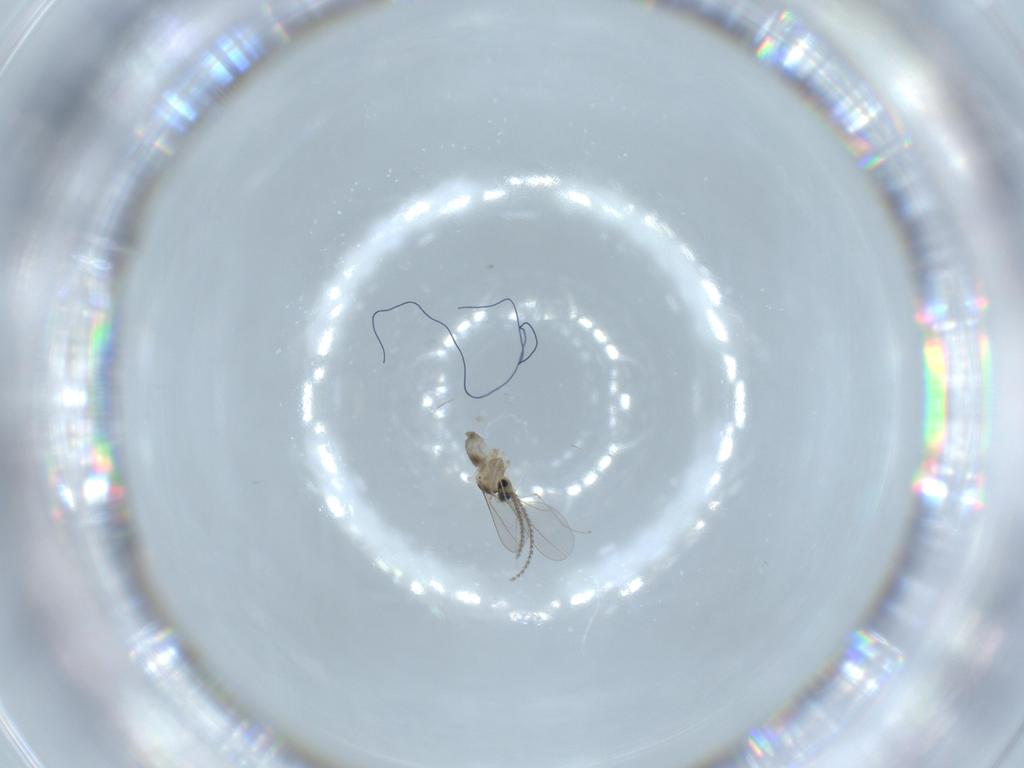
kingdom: Animalia
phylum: Arthropoda
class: Insecta
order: Diptera
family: Cecidomyiidae
